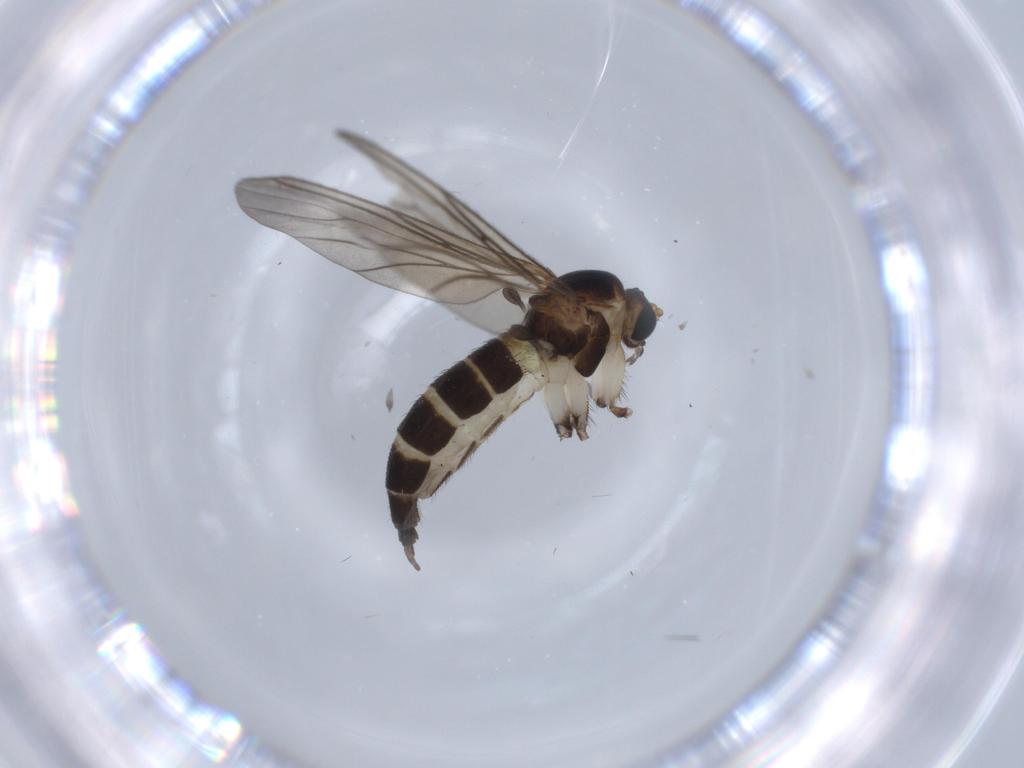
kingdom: Animalia
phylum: Arthropoda
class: Insecta
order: Diptera
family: Sciaridae
